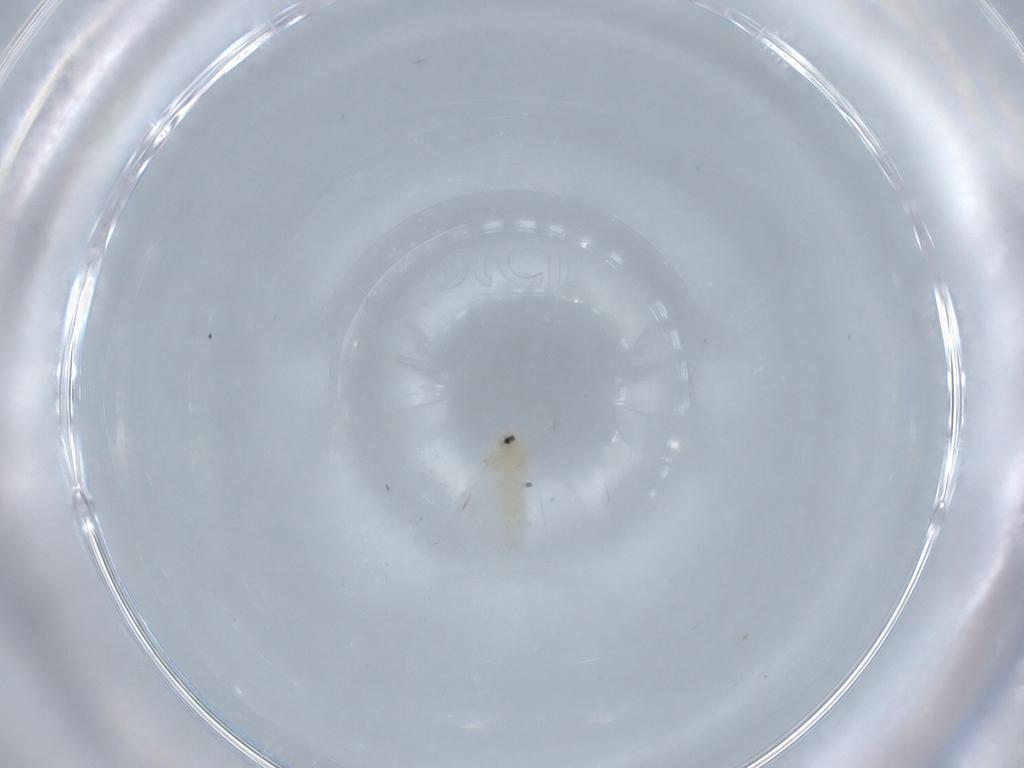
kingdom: Animalia
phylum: Arthropoda
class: Insecta
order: Hemiptera
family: Aleyrodidae
